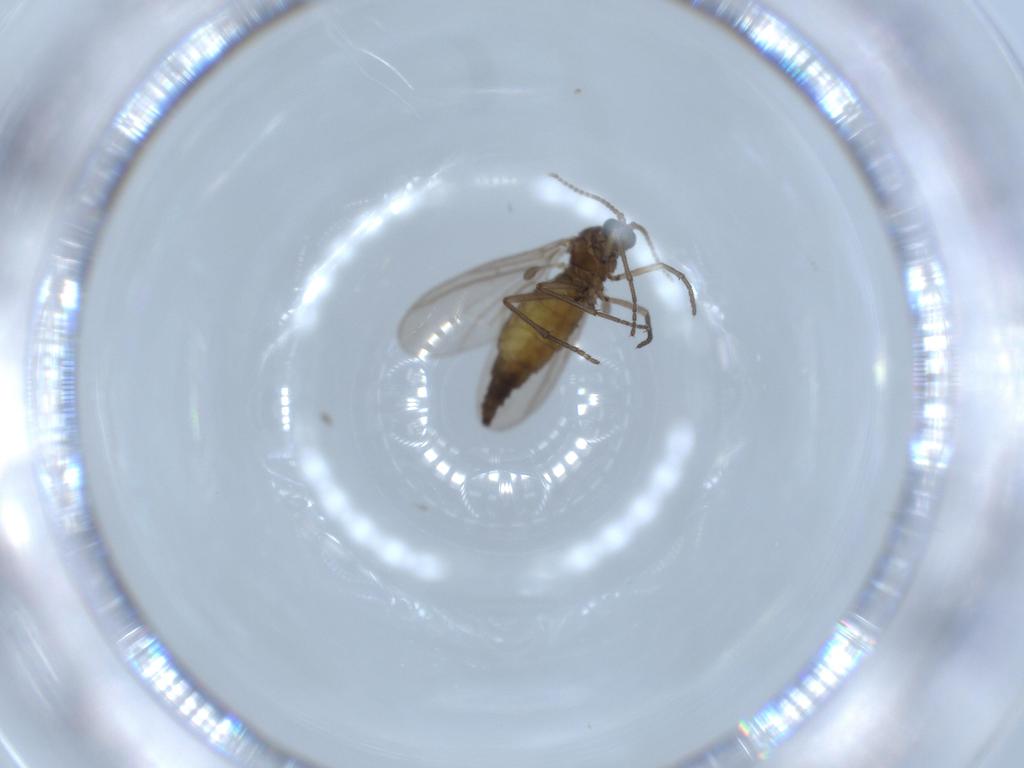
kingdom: Animalia
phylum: Arthropoda
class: Insecta
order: Diptera
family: Sciaridae
